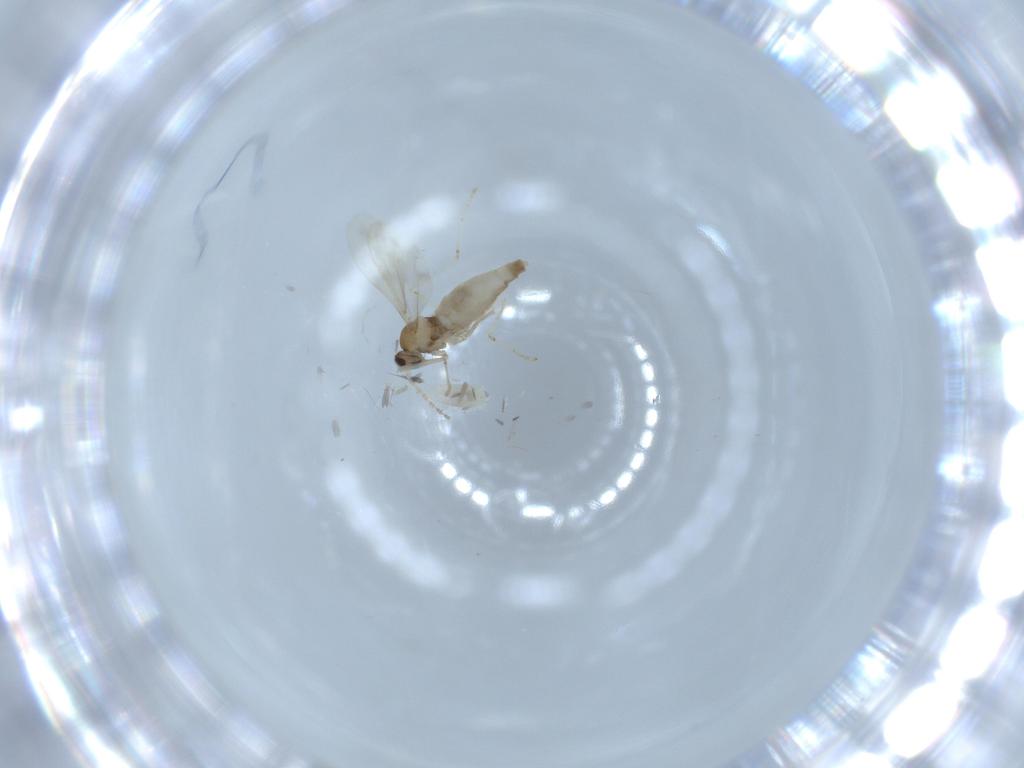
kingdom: Animalia
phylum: Arthropoda
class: Insecta
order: Diptera
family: Cecidomyiidae
